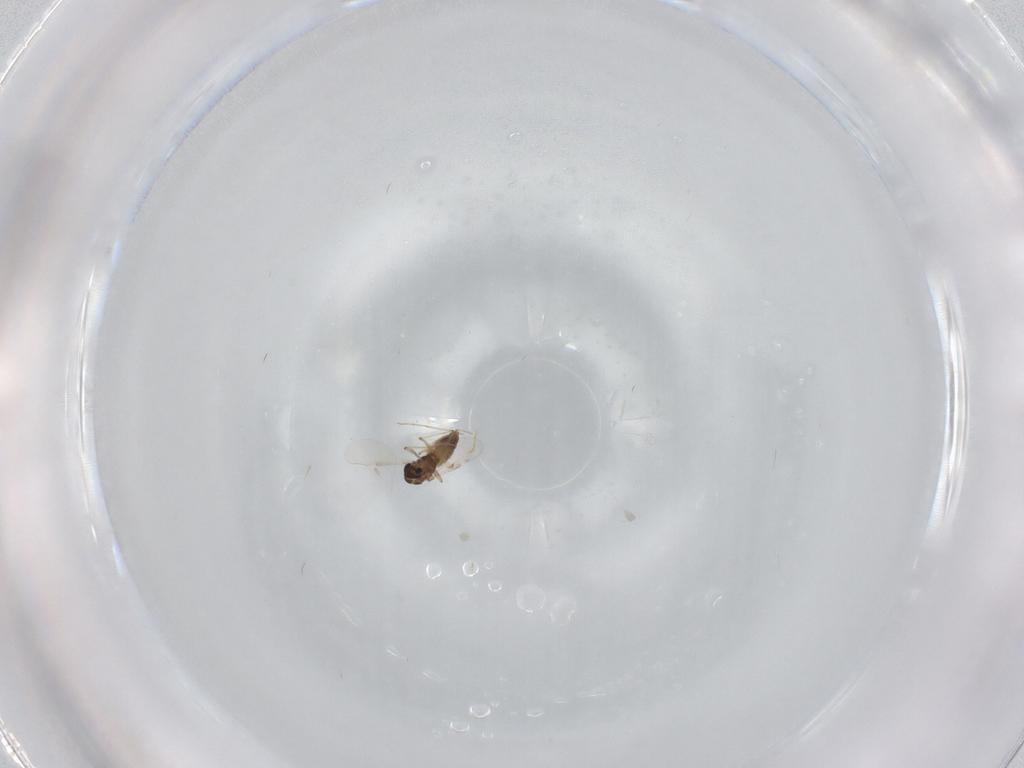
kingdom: Animalia
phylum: Arthropoda
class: Insecta
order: Diptera
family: Chironomidae
